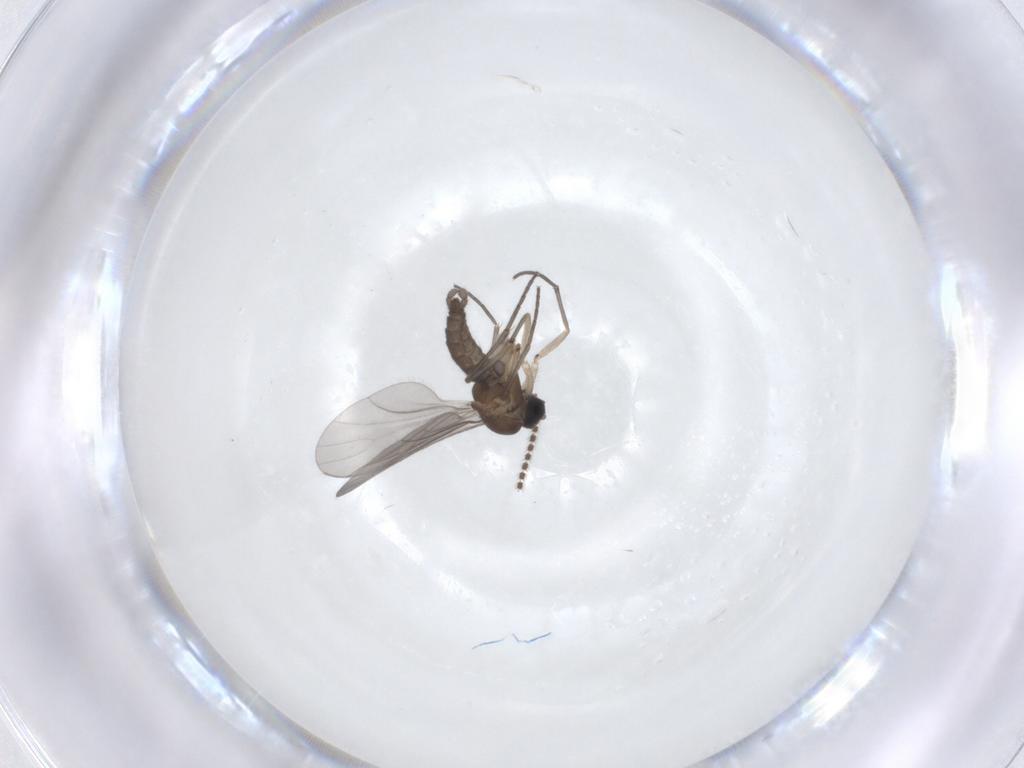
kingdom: Animalia
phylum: Arthropoda
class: Insecta
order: Diptera
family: Sciaridae
